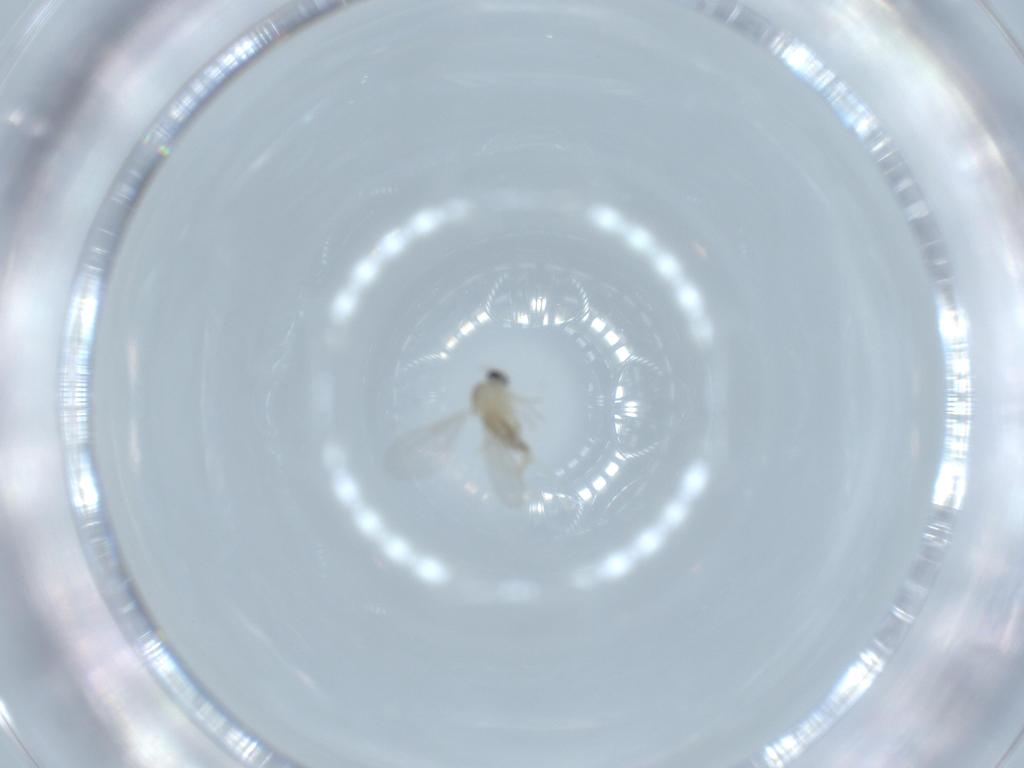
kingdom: Animalia
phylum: Arthropoda
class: Insecta
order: Diptera
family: Cecidomyiidae
